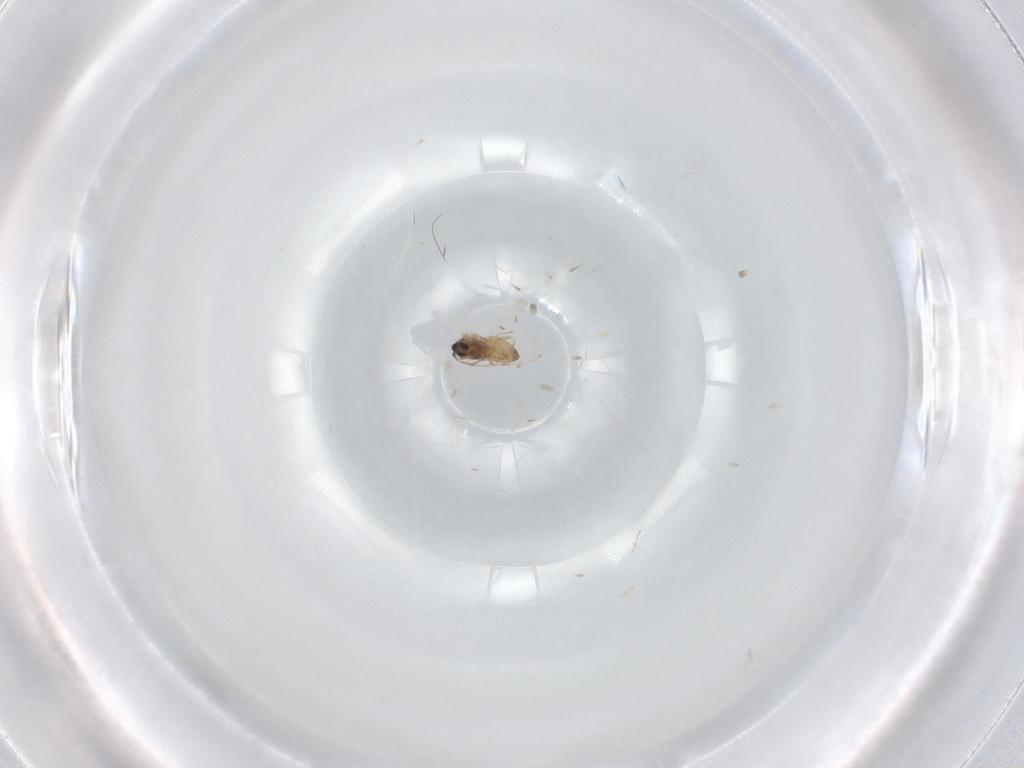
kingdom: Animalia
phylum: Arthropoda
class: Insecta
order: Diptera
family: Cecidomyiidae
